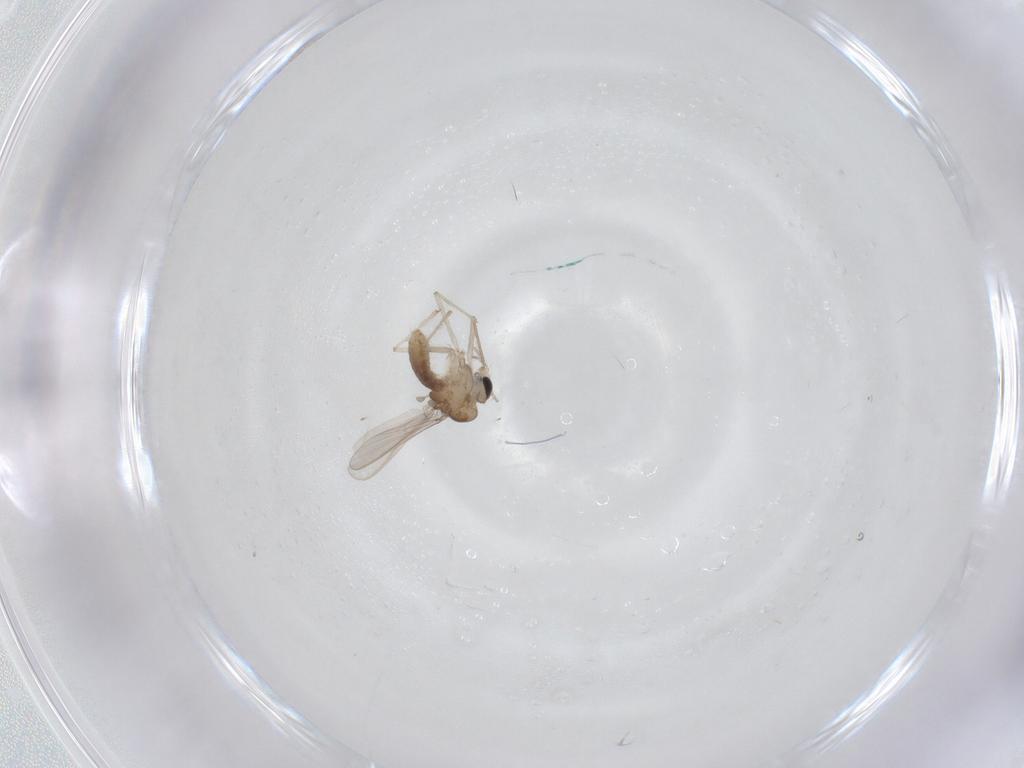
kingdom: Animalia
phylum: Arthropoda
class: Insecta
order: Diptera
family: Chironomidae
